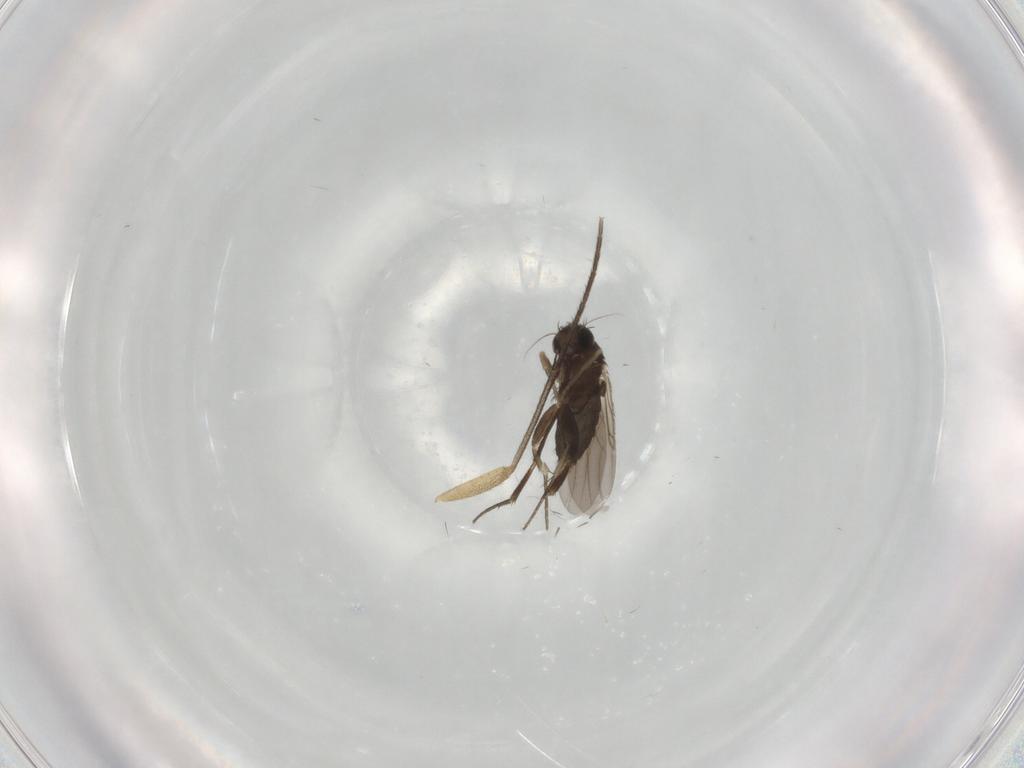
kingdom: Animalia
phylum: Arthropoda
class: Insecta
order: Diptera
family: Phoridae
